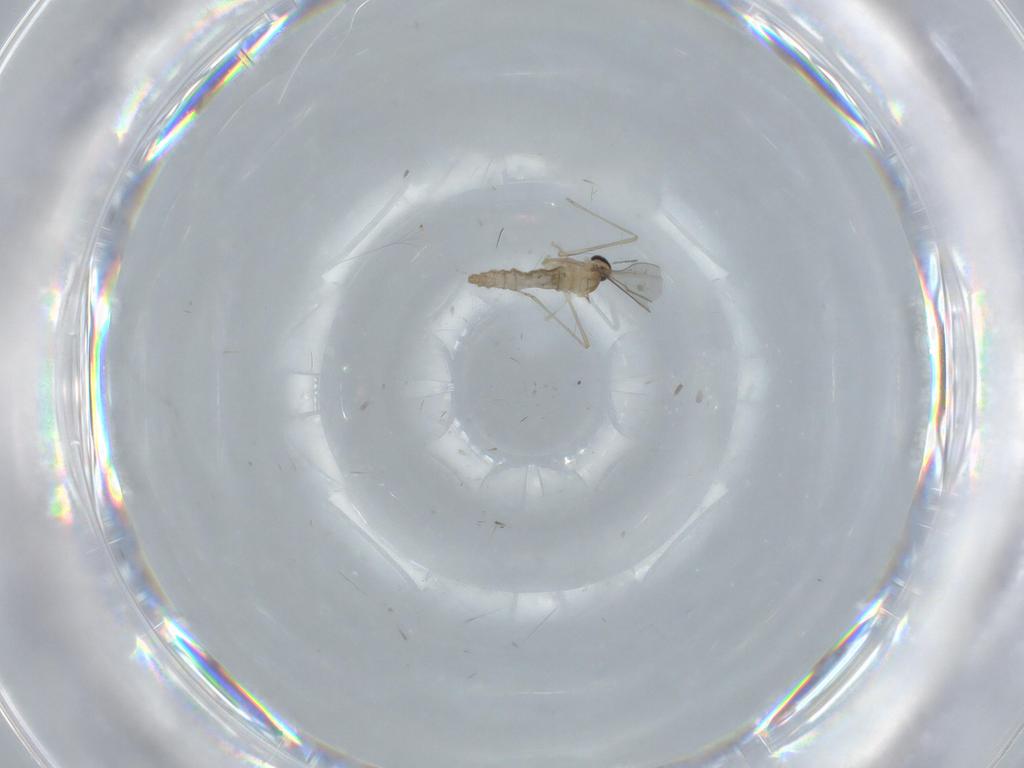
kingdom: Animalia
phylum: Arthropoda
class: Insecta
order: Diptera
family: Cecidomyiidae
